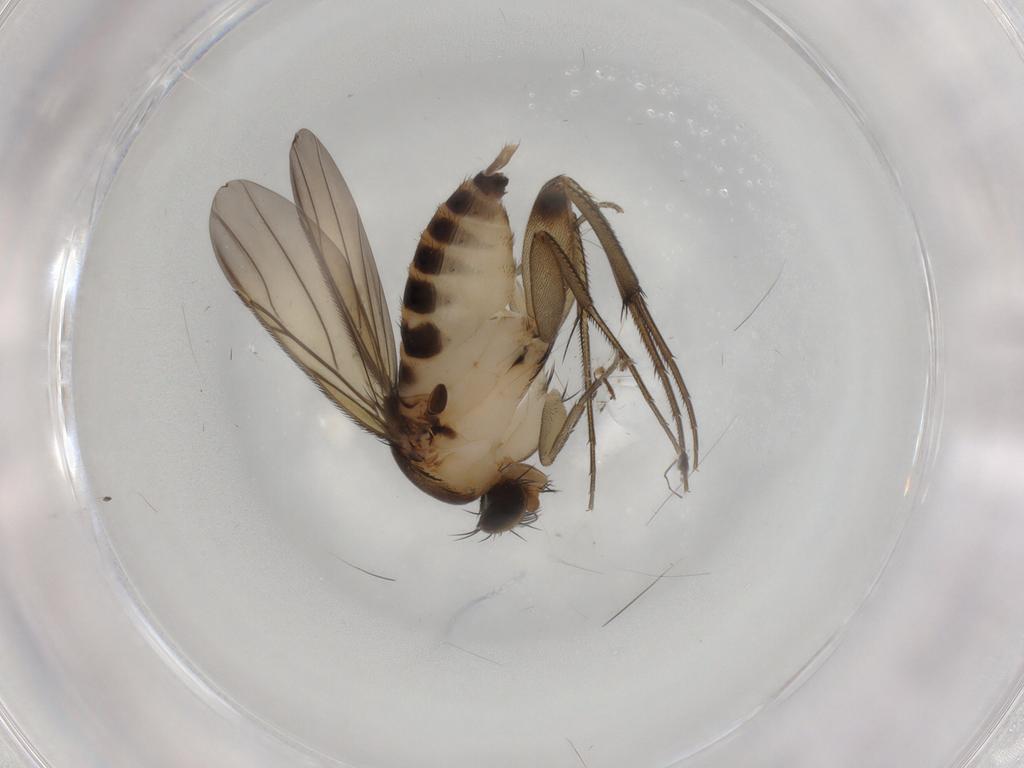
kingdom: Animalia
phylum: Arthropoda
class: Insecta
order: Diptera
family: Phoridae
